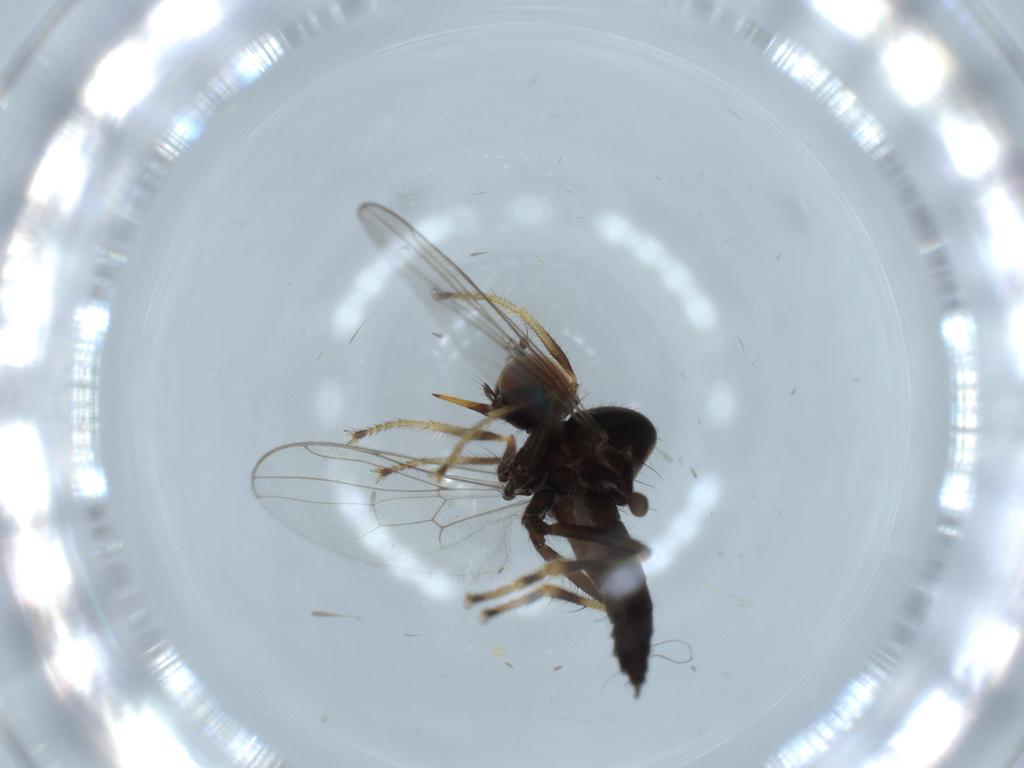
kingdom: Animalia
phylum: Arthropoda
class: Insecta
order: Diptera
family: Hybotidae
